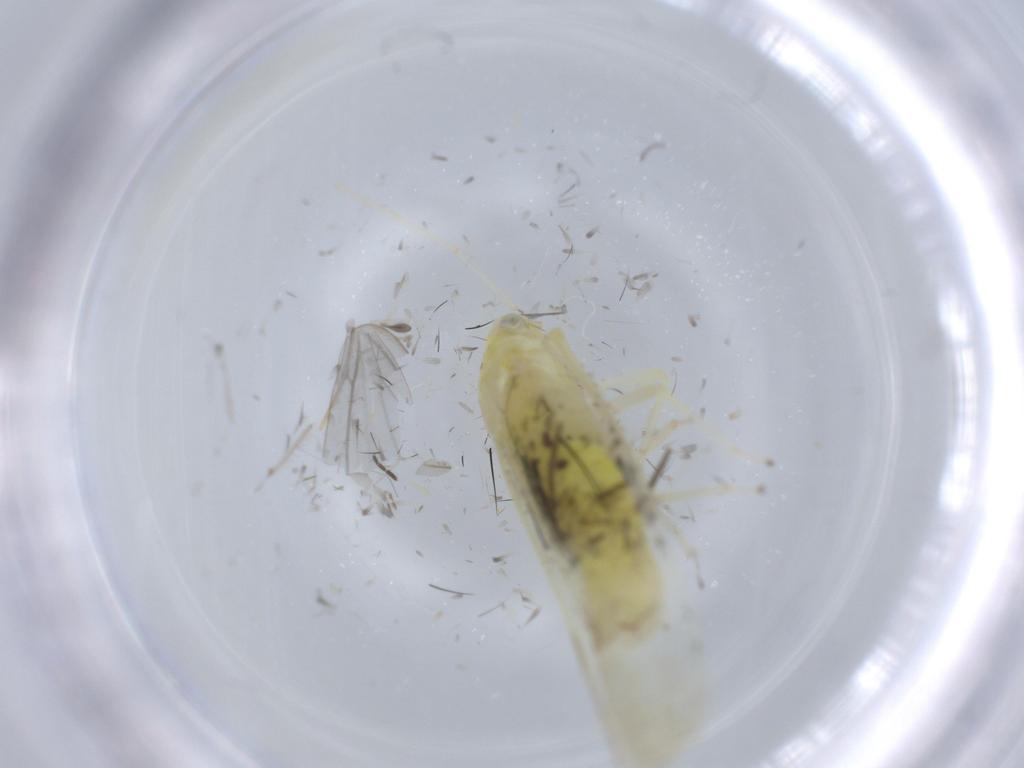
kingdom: Animalia
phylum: Arthropoda
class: Insecta
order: Hemiptera
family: Cicadellidae
